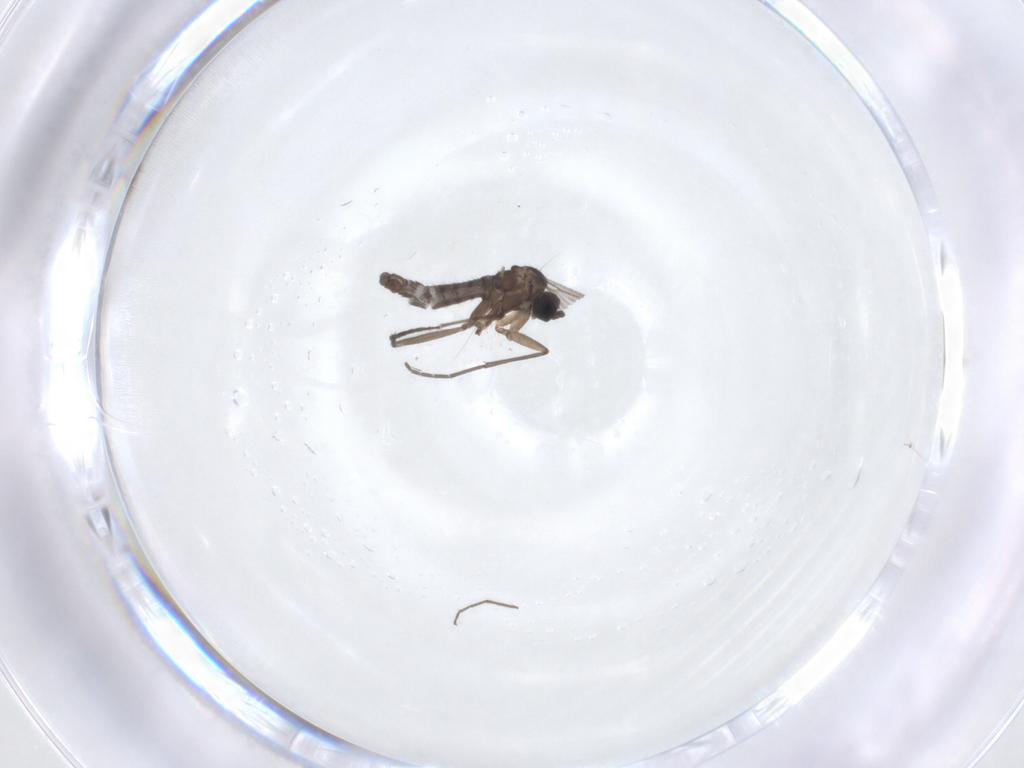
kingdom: Animalia
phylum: Arthropoda
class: Insecta
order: Diptera
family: Sciaridae
